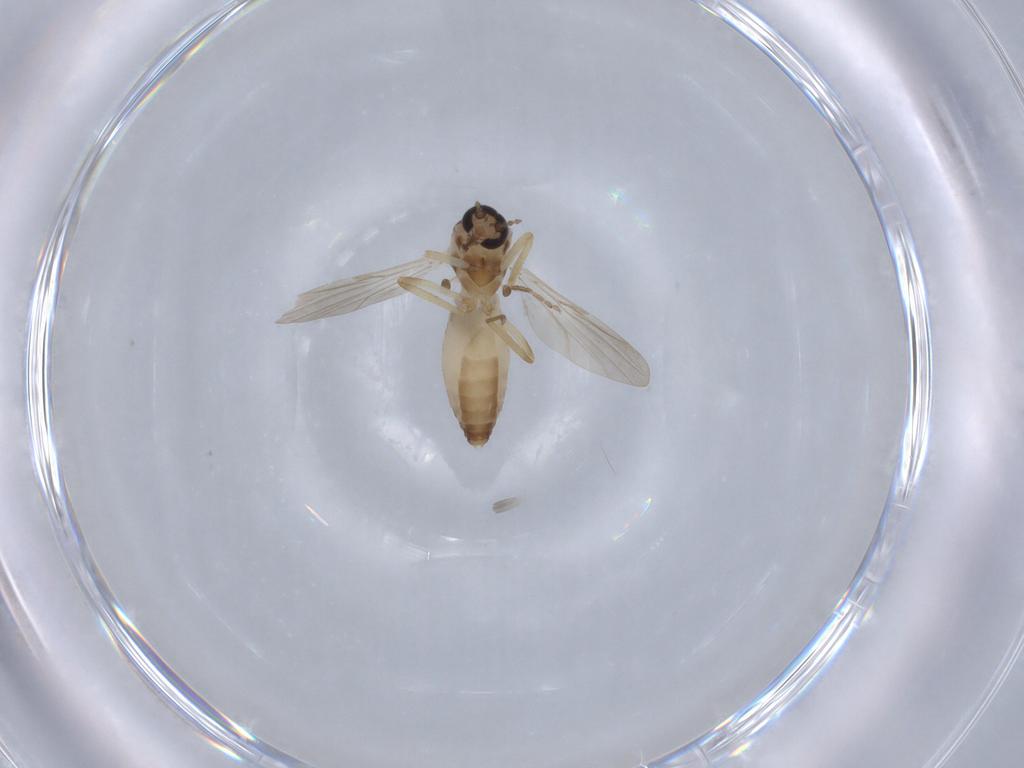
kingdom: Animalia
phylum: Arthropoda
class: Insecta
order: Diptera
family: Ceratopogonidae
